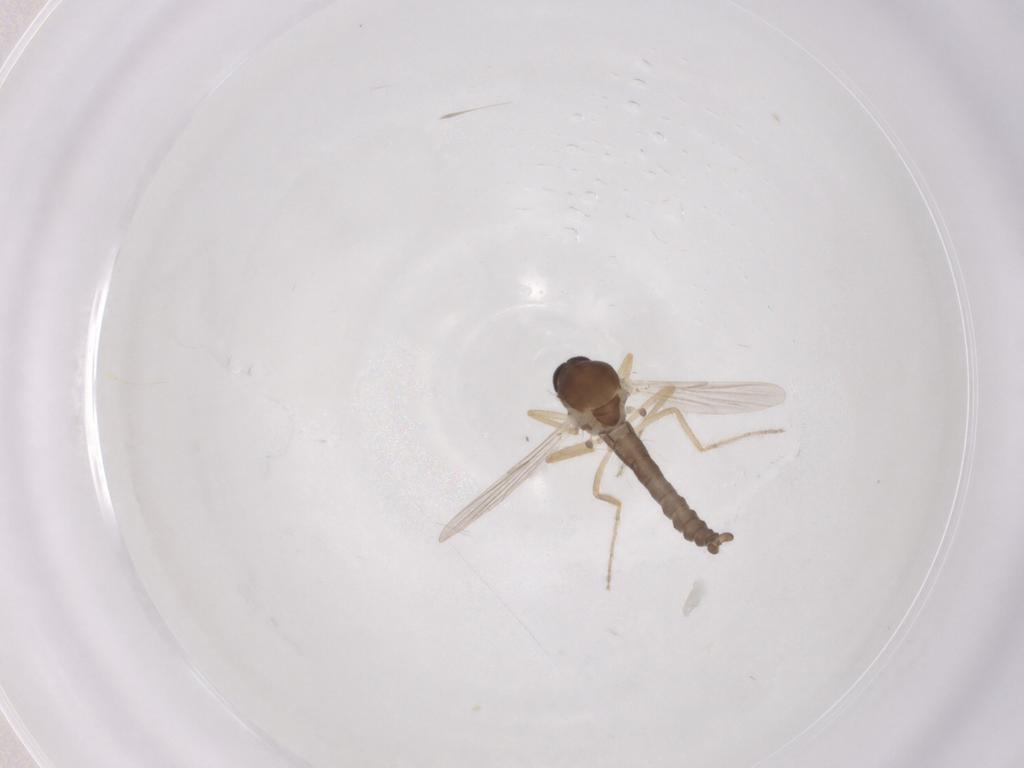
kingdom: Animalia
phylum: Arthropoda
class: Insecta
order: Diptera
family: Ceratopogonidae
